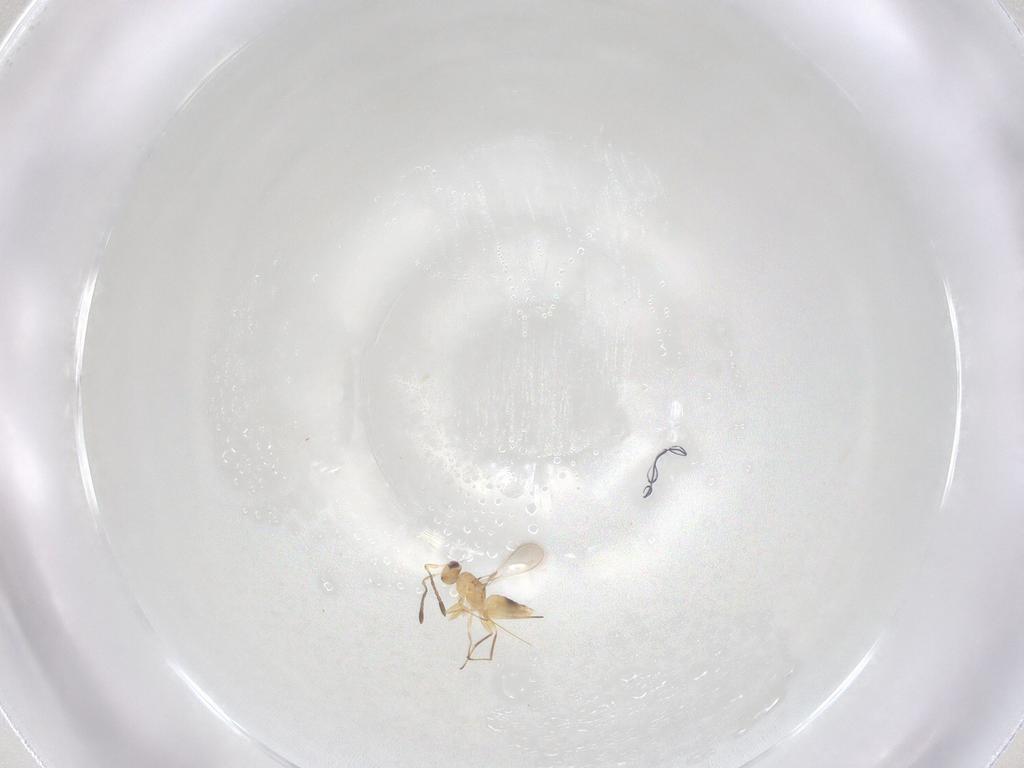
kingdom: Animalia
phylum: Arthropoda
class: Insecta
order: Hymenoptera
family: Mymaridae
